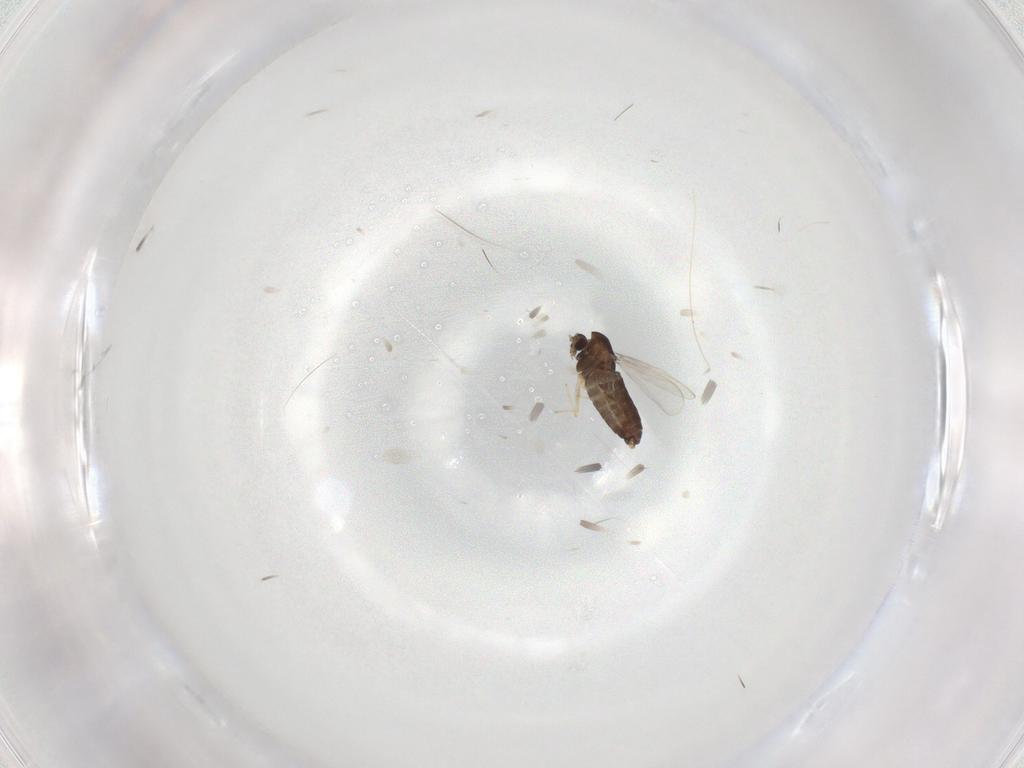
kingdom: Animalia
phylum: Arthropoda
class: Insecta
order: Diptera
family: Chironomidae
